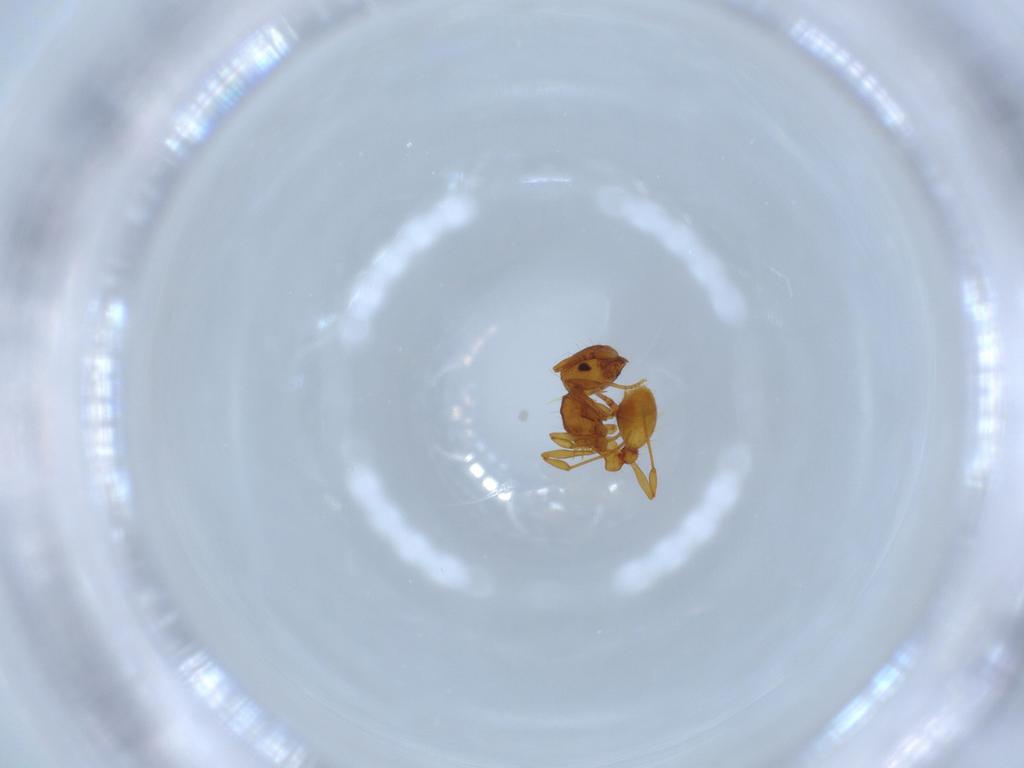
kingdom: Animalia
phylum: Arthropoda
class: Insecta
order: Hymenoptera
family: Formicidae
